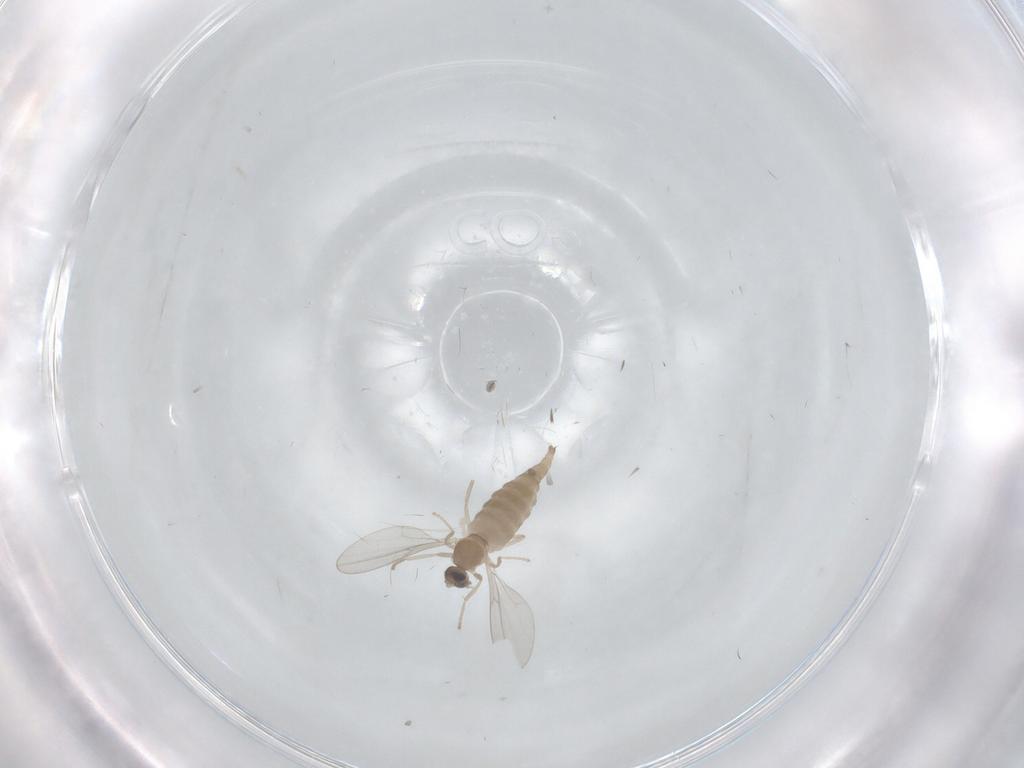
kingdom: Animalia
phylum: Arthropoda
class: Insecta
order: Diptera
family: Cecidomyiidae
